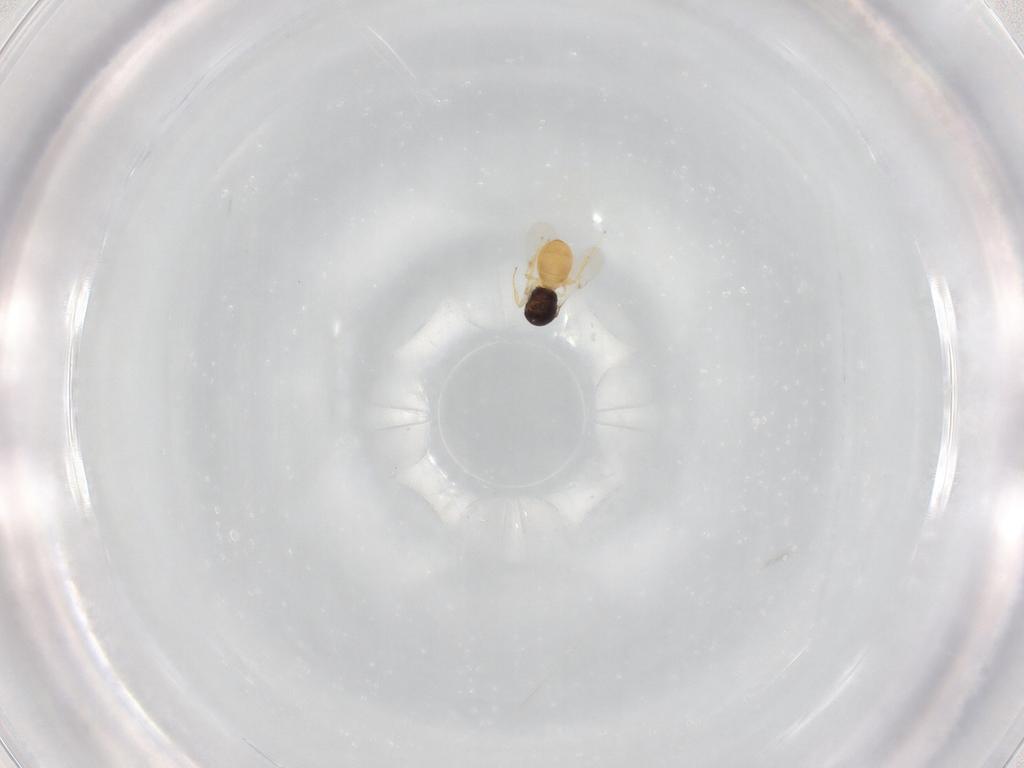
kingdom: Animalia
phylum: Arthropoda
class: Insecta
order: Hymenoptera
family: Scelionidae
